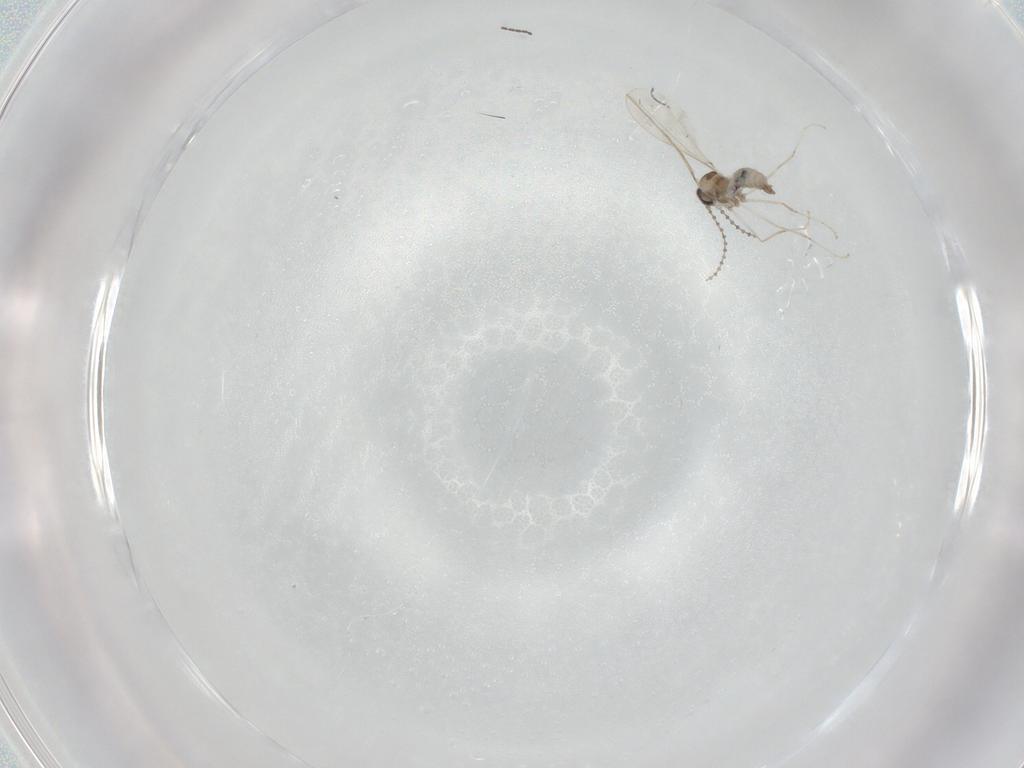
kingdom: Animalia
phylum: Arthropoda
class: Insecta
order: Diptera
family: Cecidomyiidae
